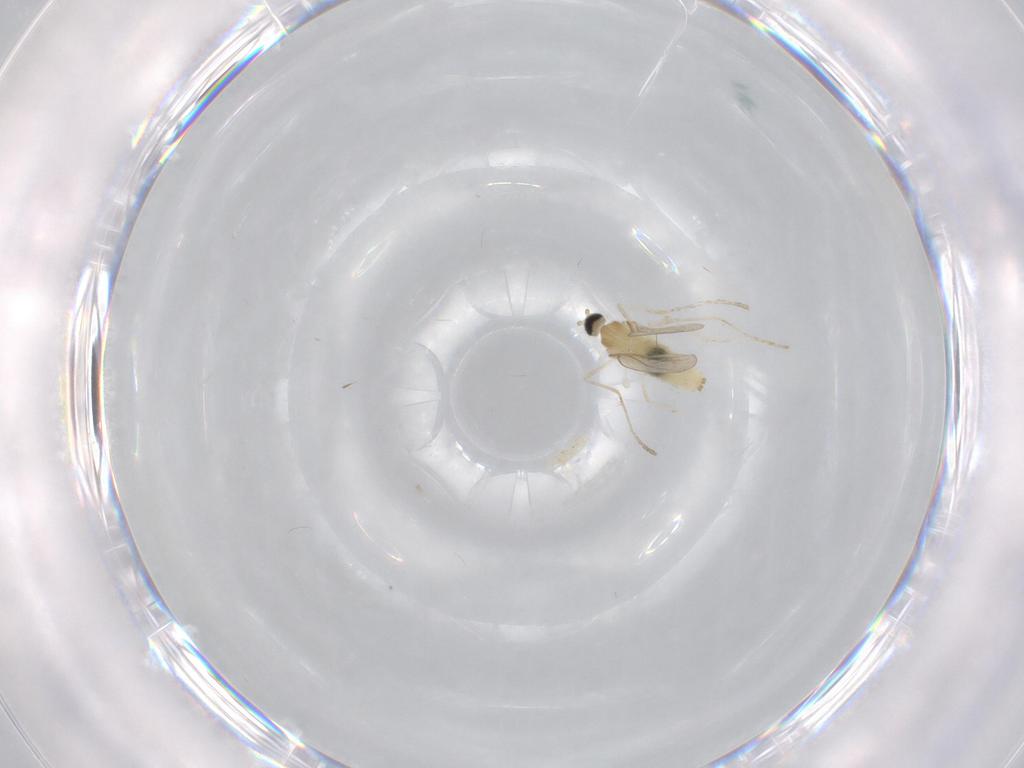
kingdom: Animalia
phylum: Arthropoda
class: Insecta
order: Diptera
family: Cecidomyiidae
